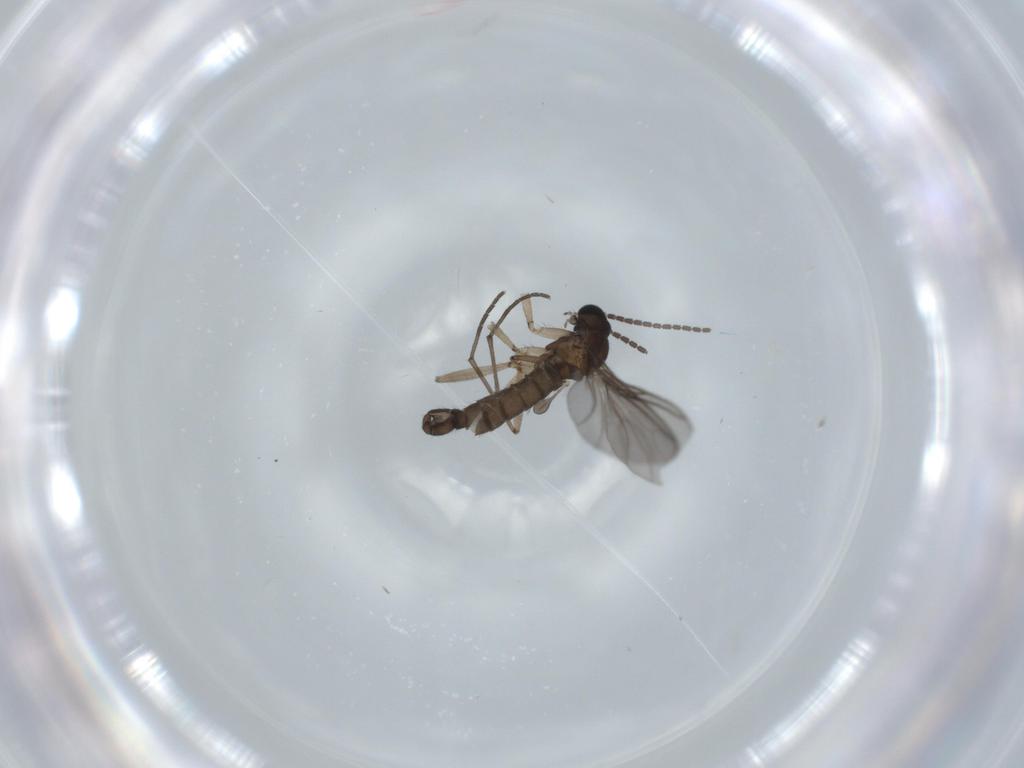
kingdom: Animalia
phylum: Arthropoda
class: Insecta
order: Diptera
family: Sciaridae
